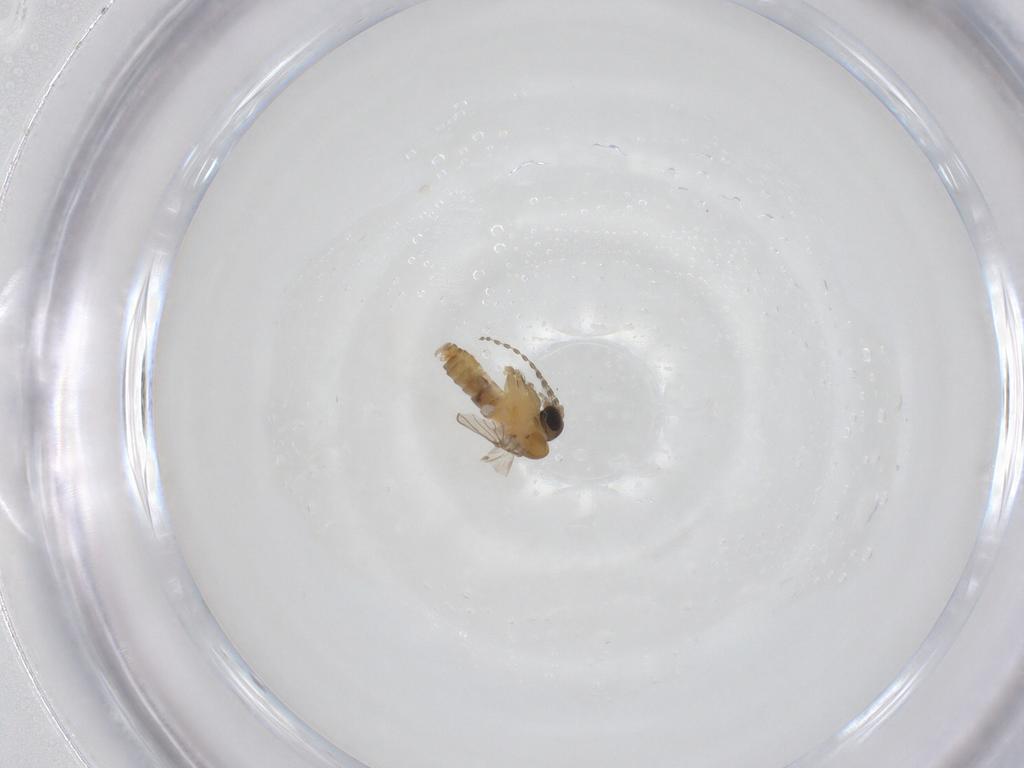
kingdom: Animalia
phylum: Arthropoda
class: Insecta
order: Diptera
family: Psychodidae
